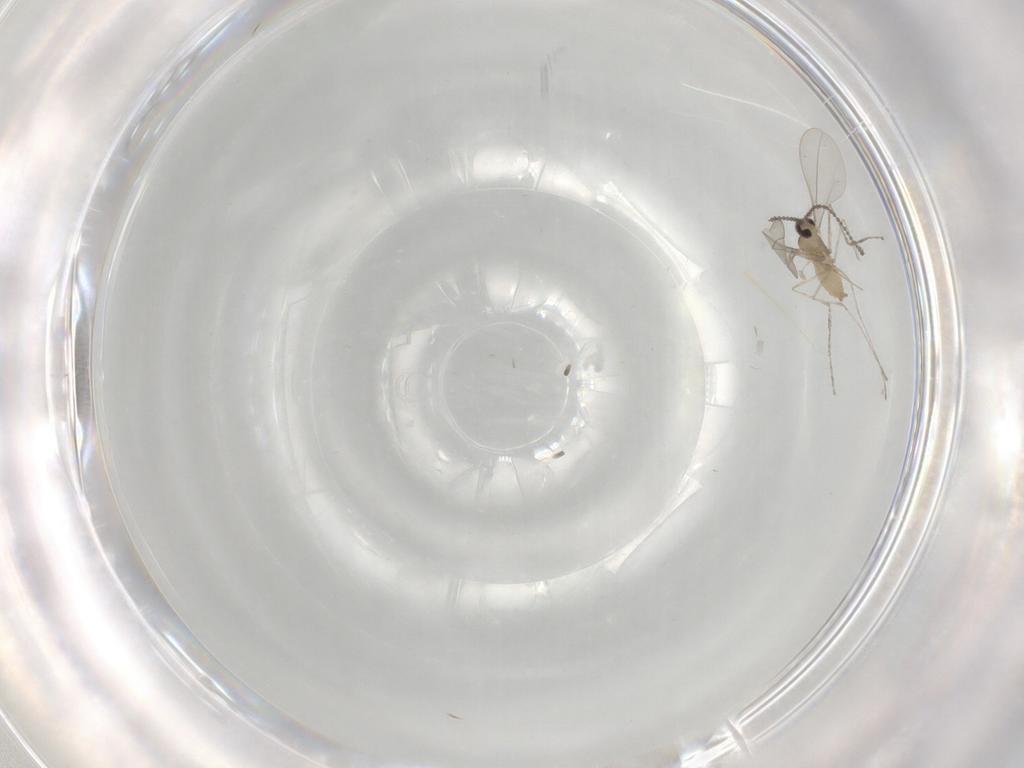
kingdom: Animalia
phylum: Arthropoda
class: Insecta
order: Diptera
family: Cecidomyiidae
